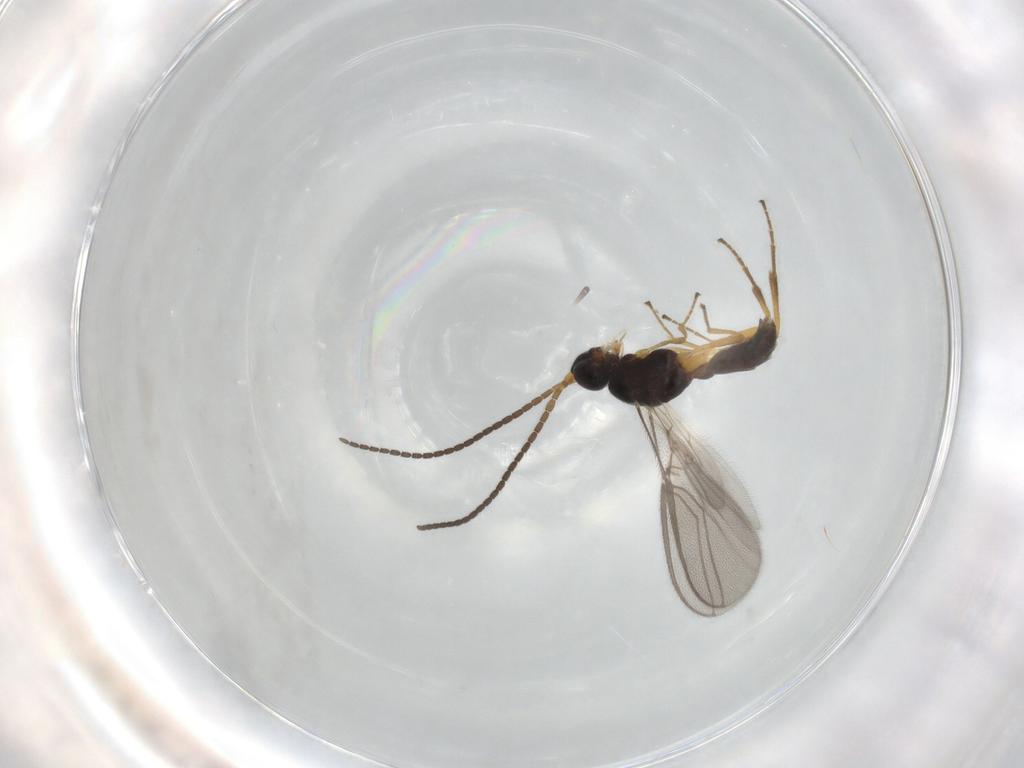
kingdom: Animalia
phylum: Arthropoda
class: Insecta
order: Hymenoptera
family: Braconidae
